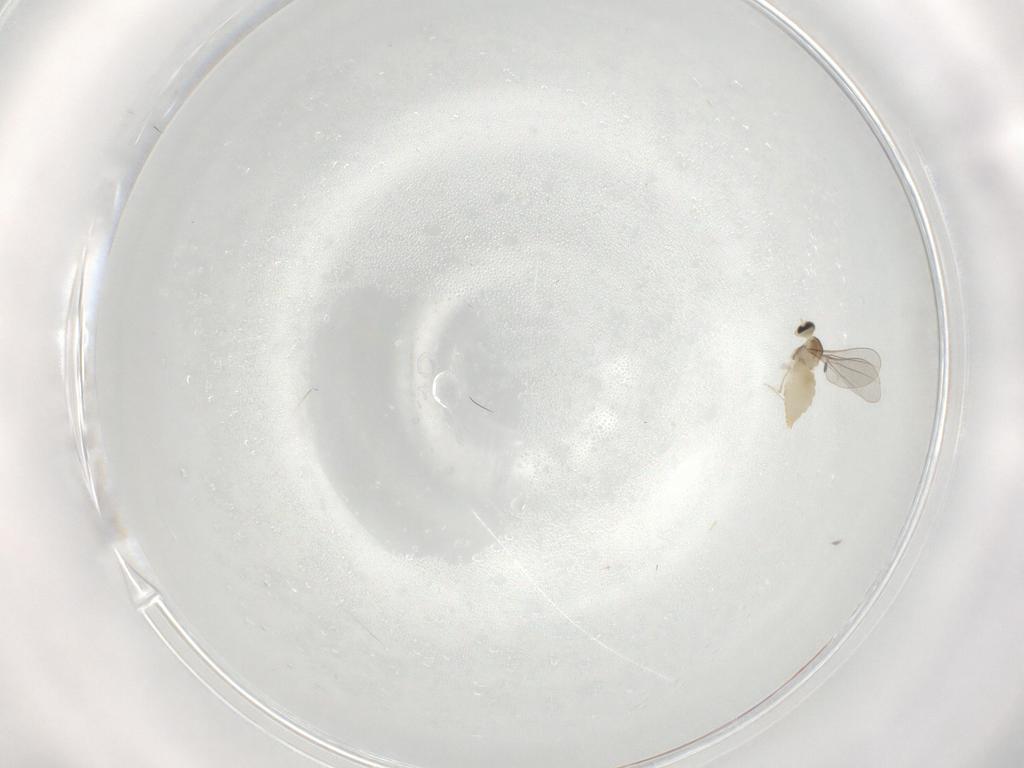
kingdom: Animalia
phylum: Arthropoda
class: Insecta
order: Diptera
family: Cecidomyiidae
